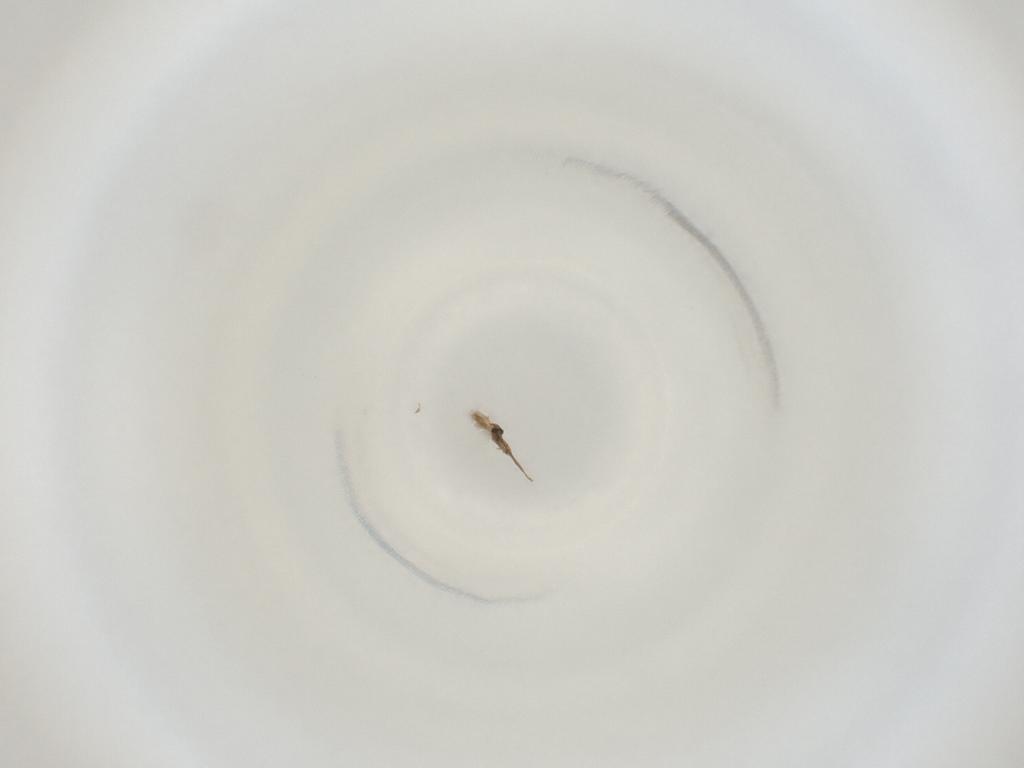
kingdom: Animalia
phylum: Arthropoda
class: Insecta
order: Diptera
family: Cecidomyiidae
